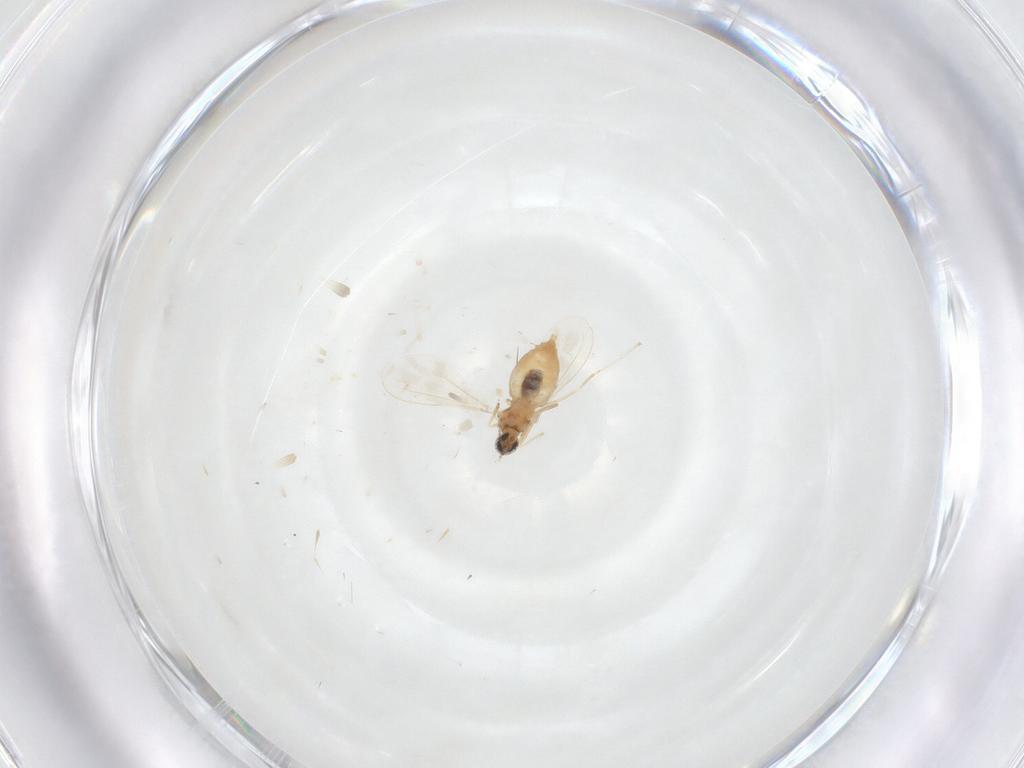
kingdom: Animalia
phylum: Arthropoda
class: Insecta
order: Diptera
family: Cecidomyiidae
